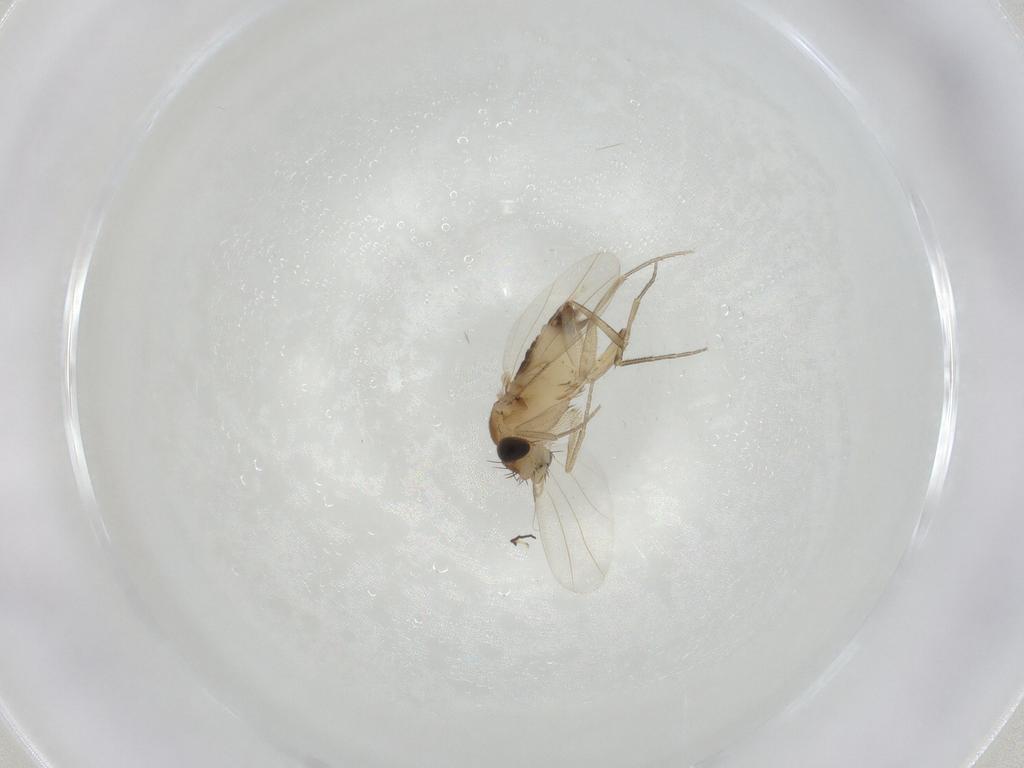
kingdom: Animalia
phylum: Arthropoda
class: Insecta
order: Diptera
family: Phoridae
